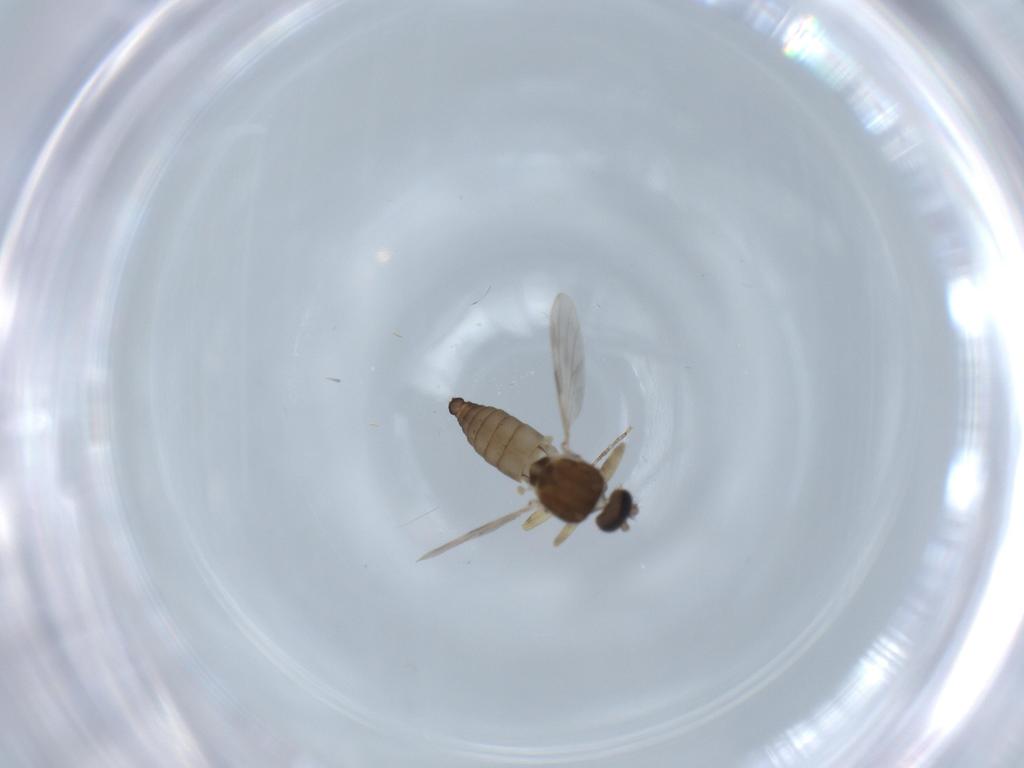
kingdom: Animalia
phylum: Arthropoda
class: Insecta
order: Diptera
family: Ceratopogonidae
